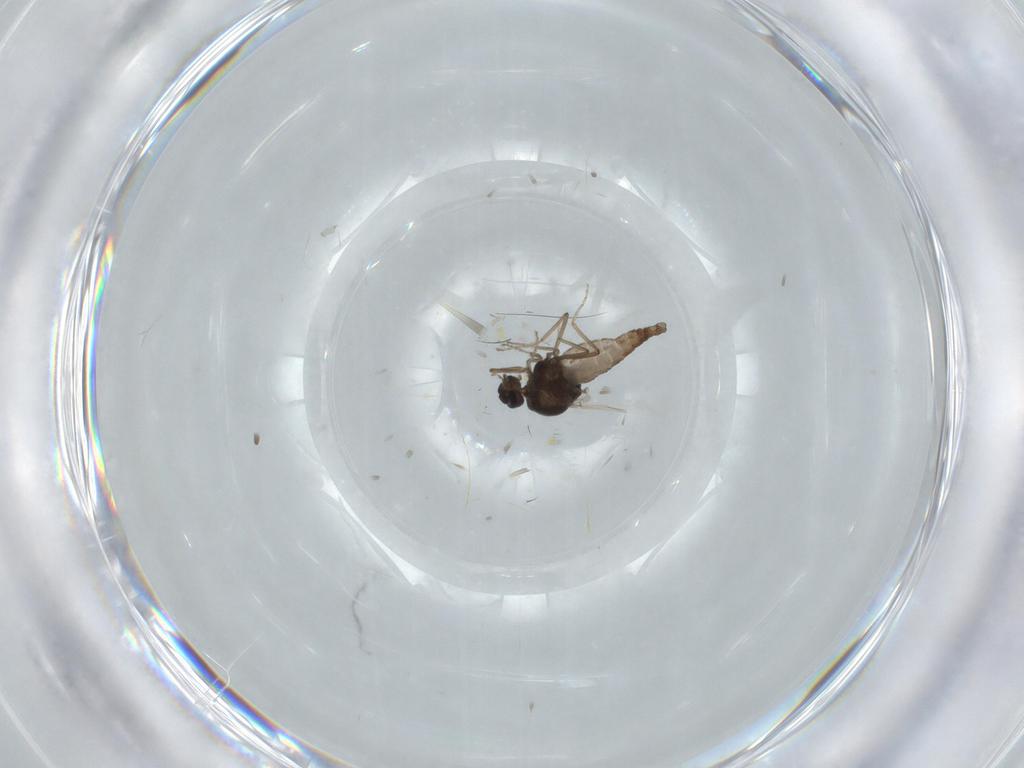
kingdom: Animalia
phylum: Arthropoda
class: Insecta
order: Diptera
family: Ceratopogonidae
